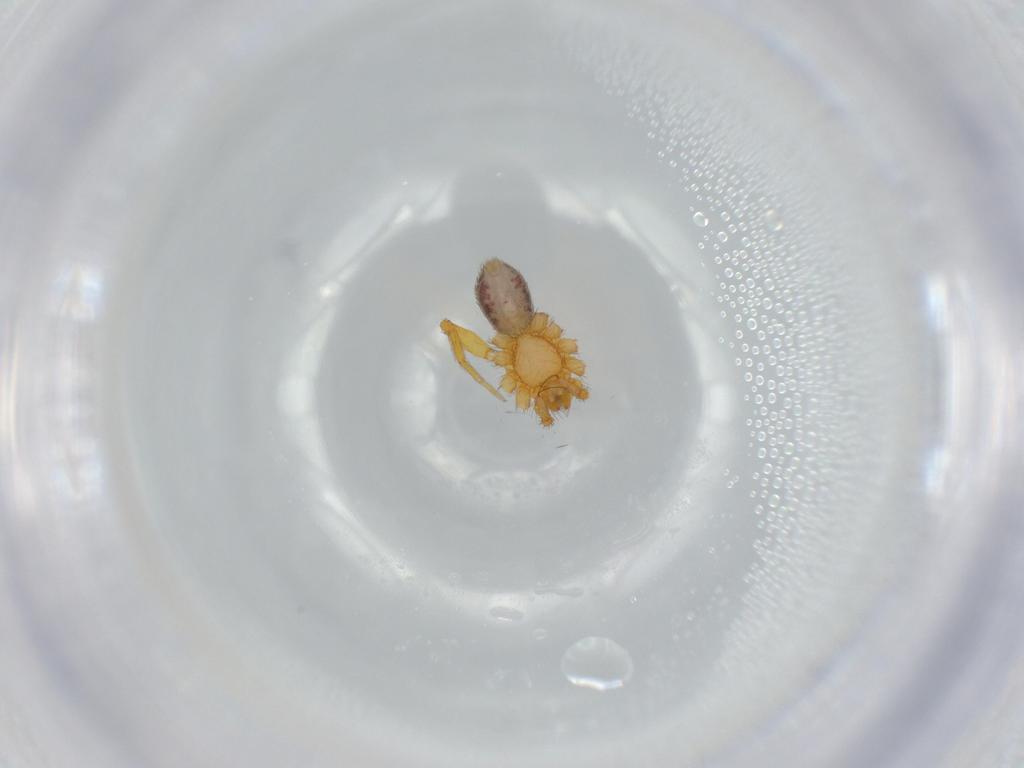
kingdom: Animalia
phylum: Arthropoda
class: Arachnida
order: Araneae
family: Oonopidae
